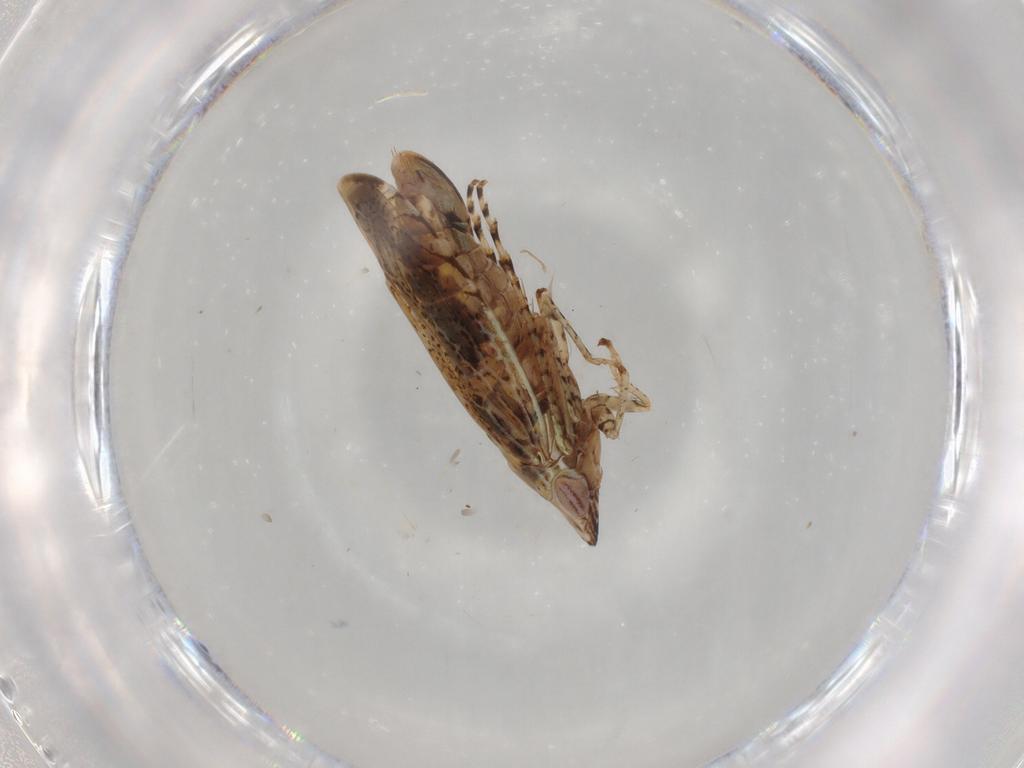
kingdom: Animalia
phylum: Arthropoda
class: Insecta
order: Hemiptera
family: Cicadellidae
